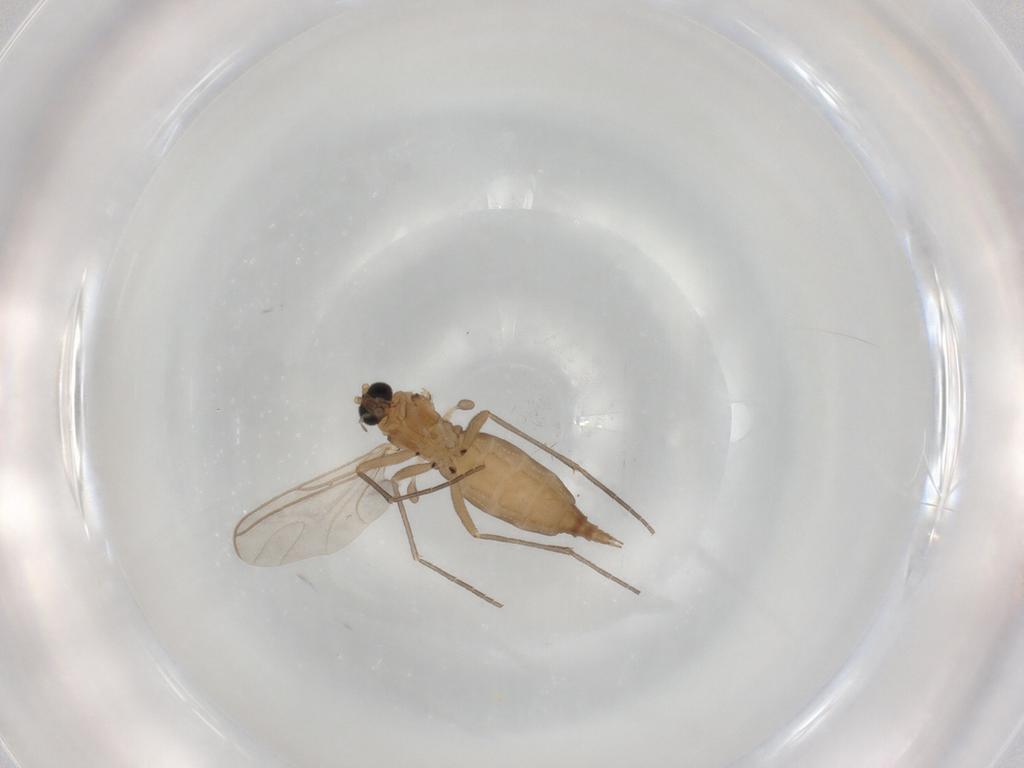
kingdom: Animalia
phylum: Arthropoda
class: Insecta
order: Diptera
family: Sciaridae
